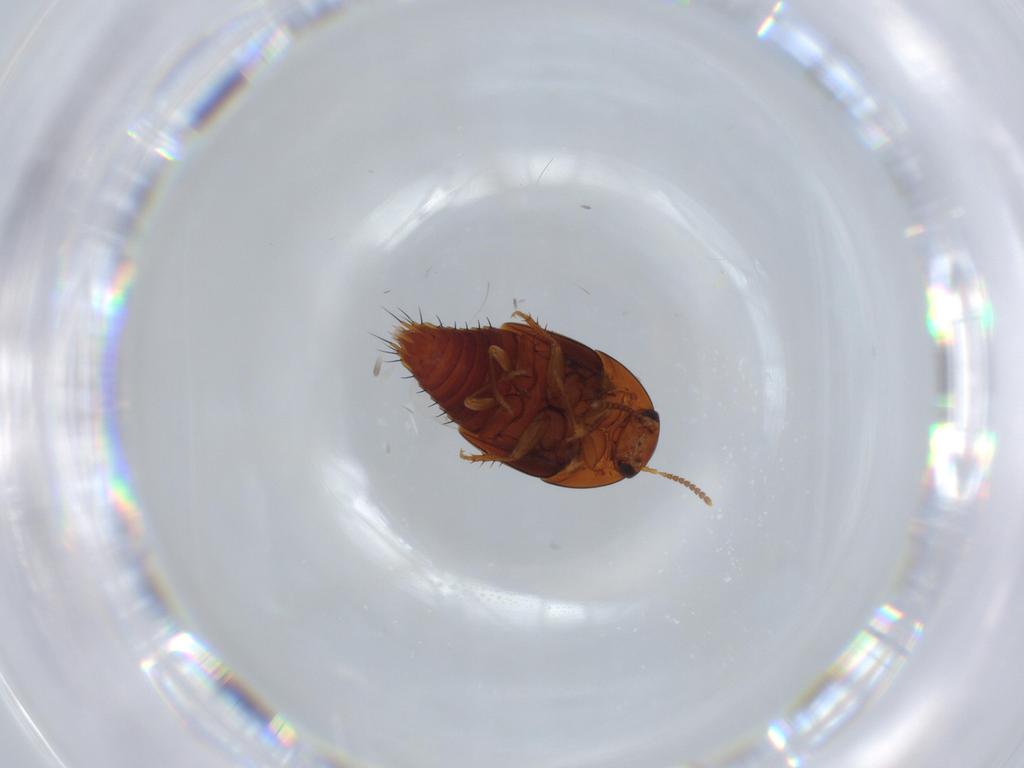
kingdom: Animalia
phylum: Arthropoda
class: Insecta
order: Coleoptera
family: Staphylinidae
